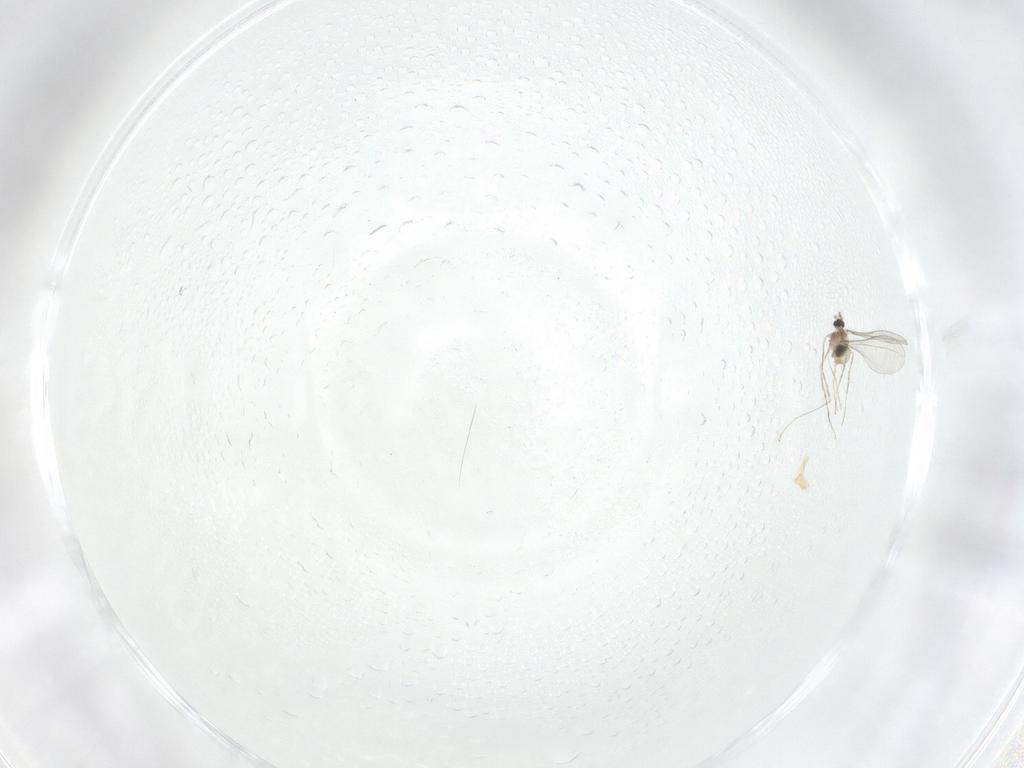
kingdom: Animalia
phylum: Arthropoda
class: Insecta
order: Diptera
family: Cecidomyiidae
